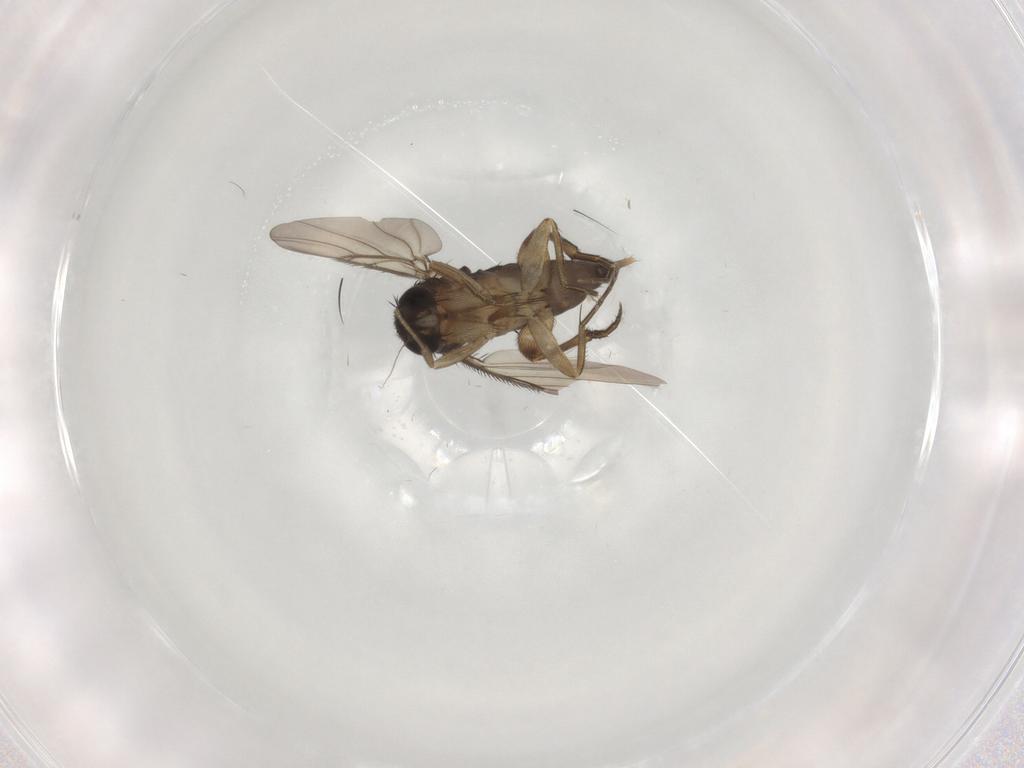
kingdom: Animalia
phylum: Arthropoda
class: Insecta
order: Diptera
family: Phoridae
